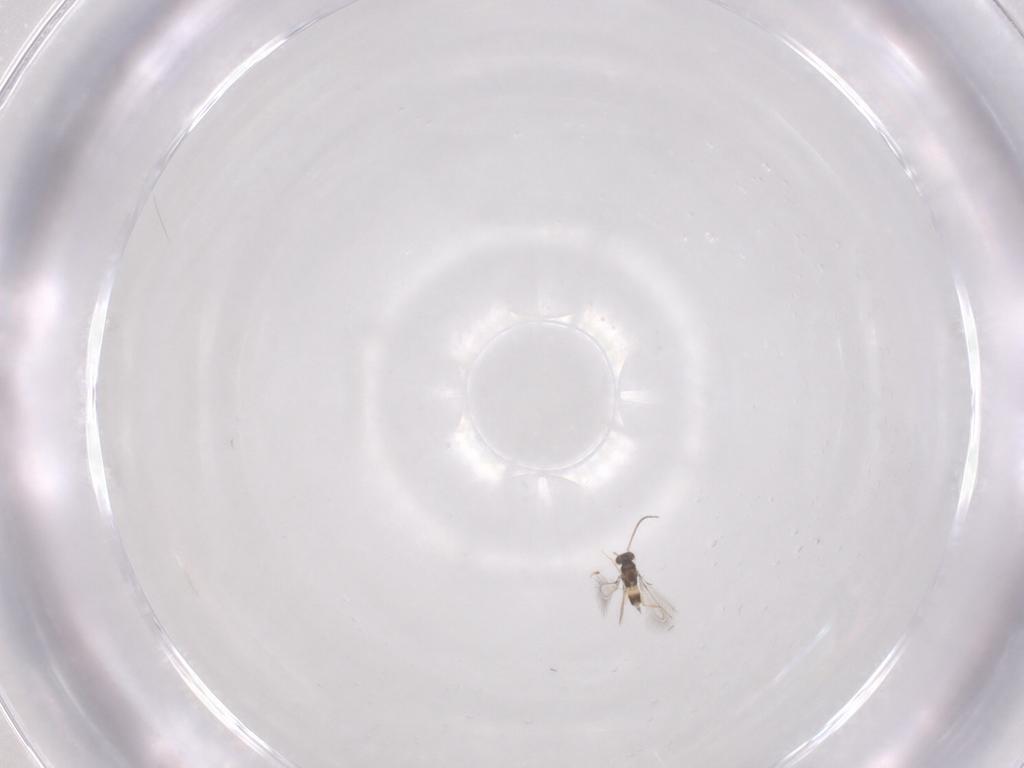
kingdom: Animalia
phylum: Arthropoda
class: Insecta
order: Hymenoptera
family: Mymaridae
